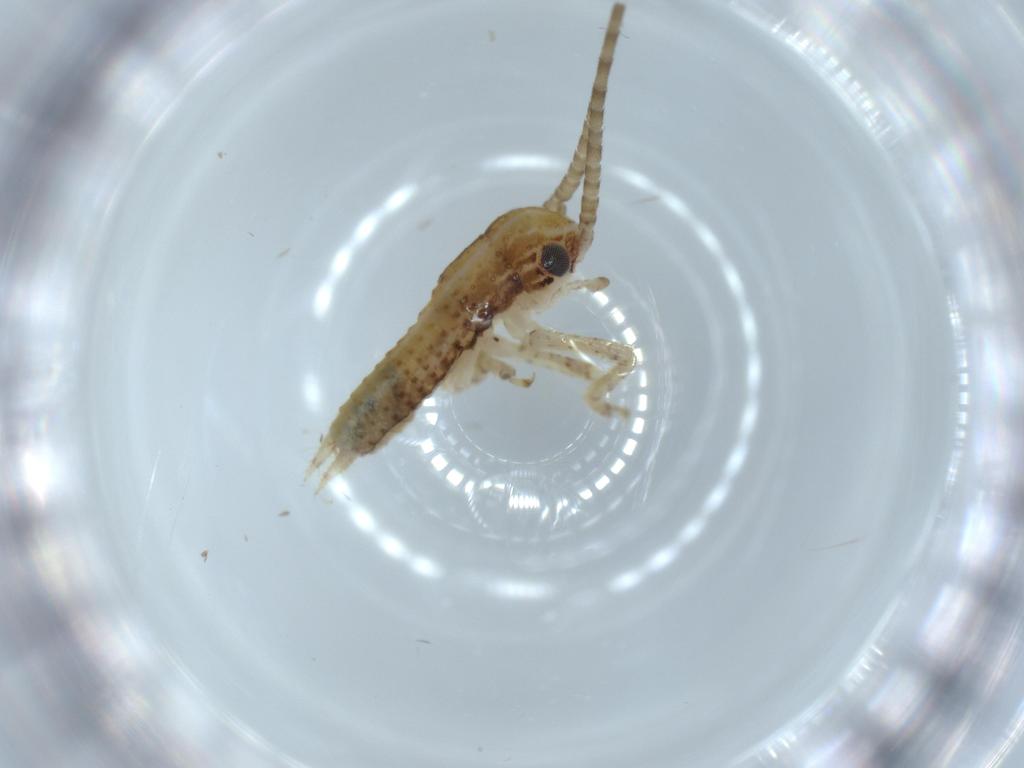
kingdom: Animalia
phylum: Arthropoda
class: Insecta
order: Orthoptera
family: Gryllidae
